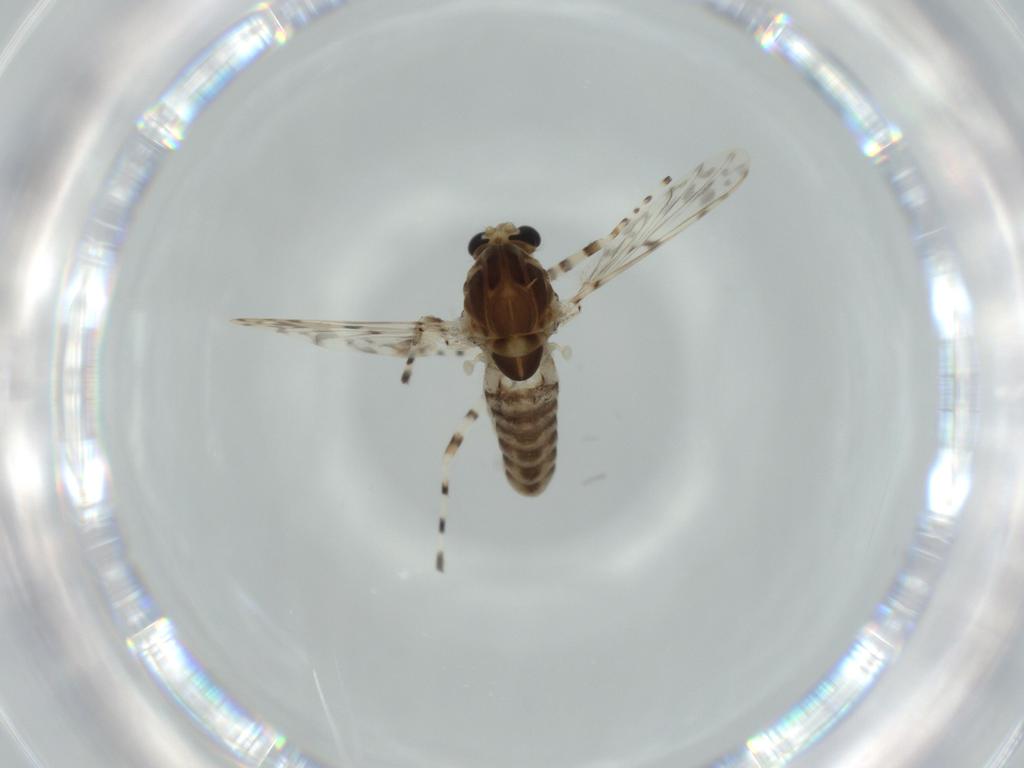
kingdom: Animalia
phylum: Arthropoda
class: Insecta
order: Diptera
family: Chironomidae
